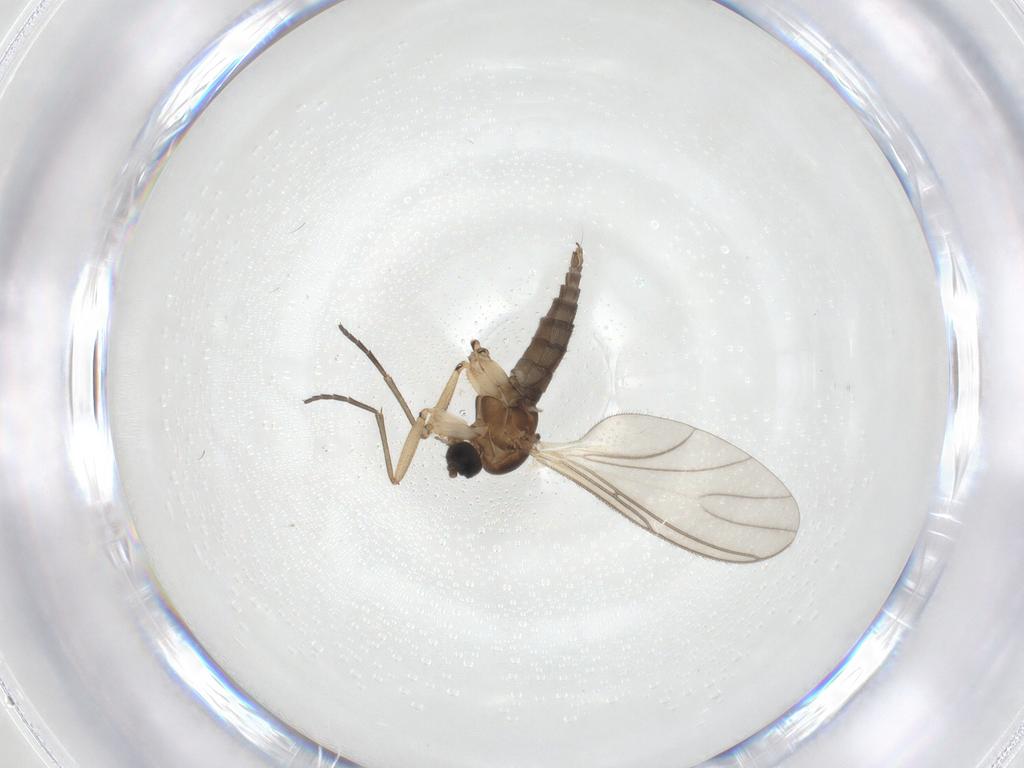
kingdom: Animalia
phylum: Arthropoda
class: Insecta
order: Diptera
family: Sciaridae
